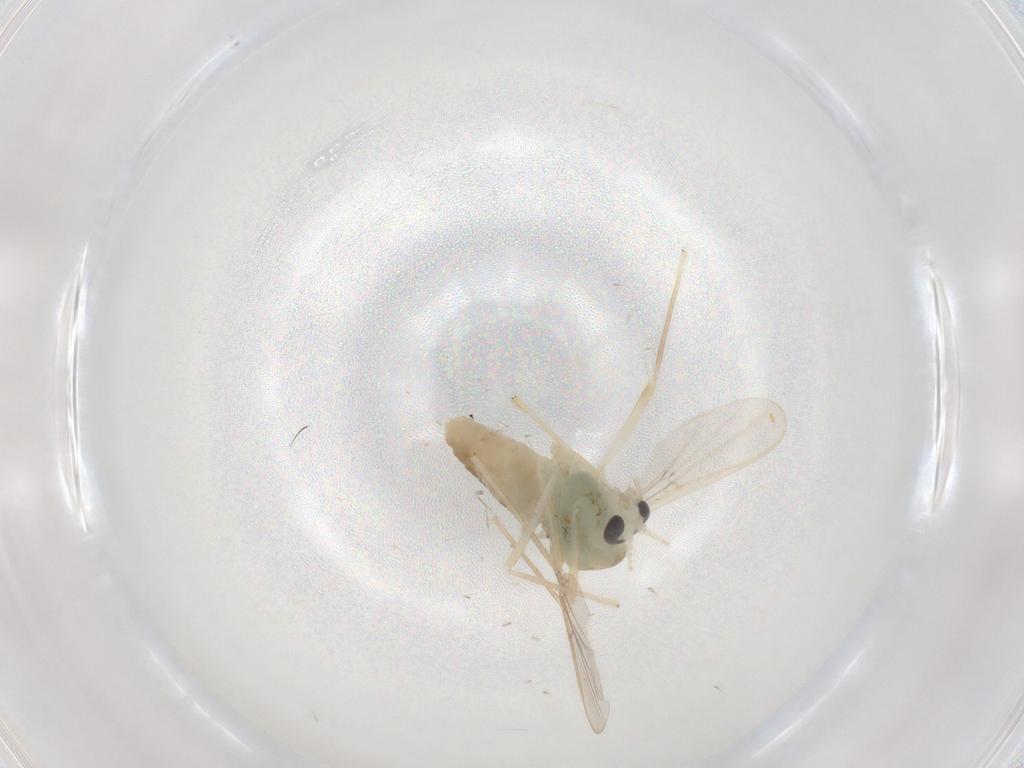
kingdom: Animalia
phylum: Arthropoda
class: Insecta
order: Diptera
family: Chironomidae
